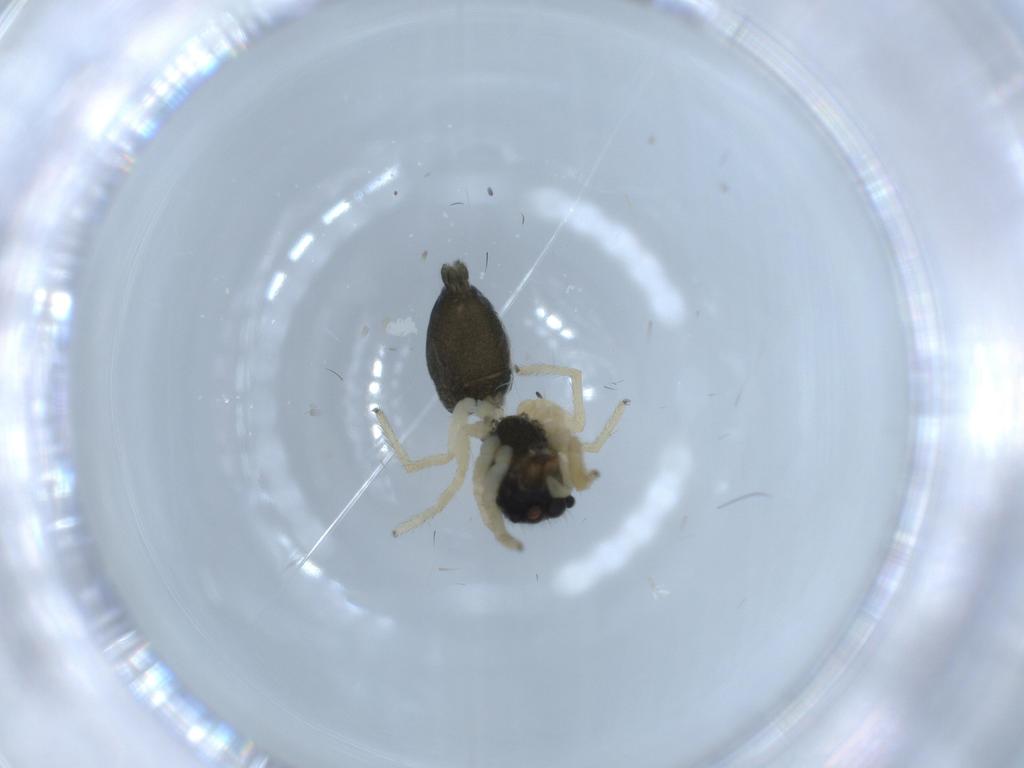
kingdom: Animalia
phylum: Arthropoda
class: Arachnida
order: Araneae
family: Salticidae
